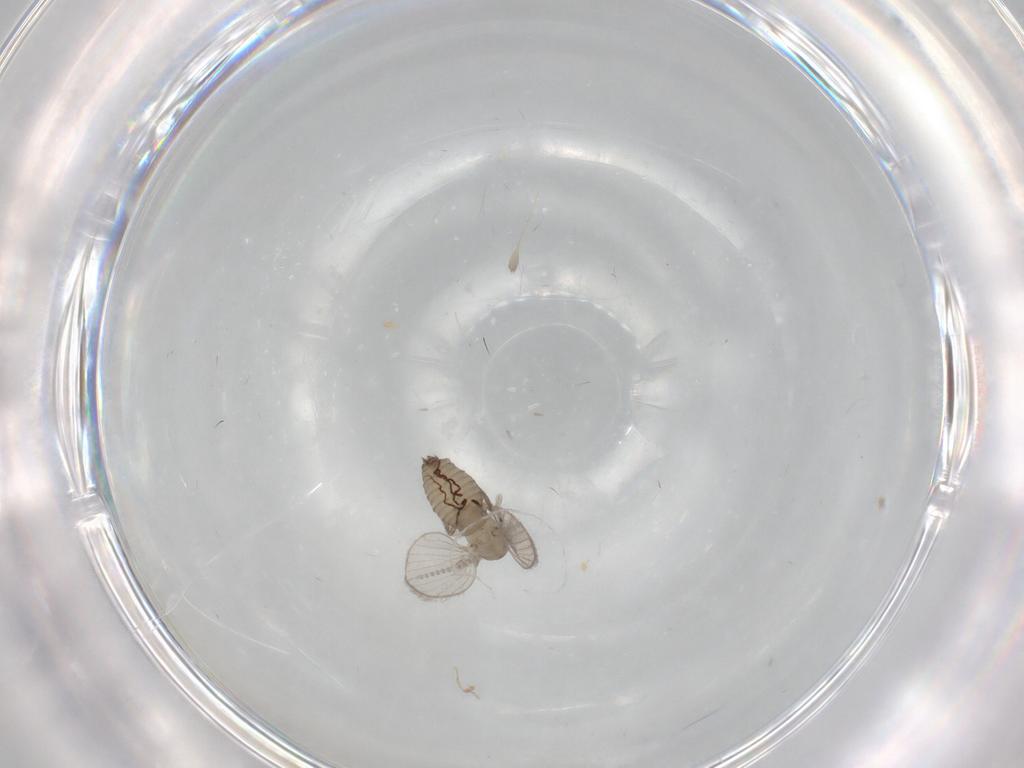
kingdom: Animalia
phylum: Arthropoda
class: Insecta
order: Diptera
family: Psychodidae
